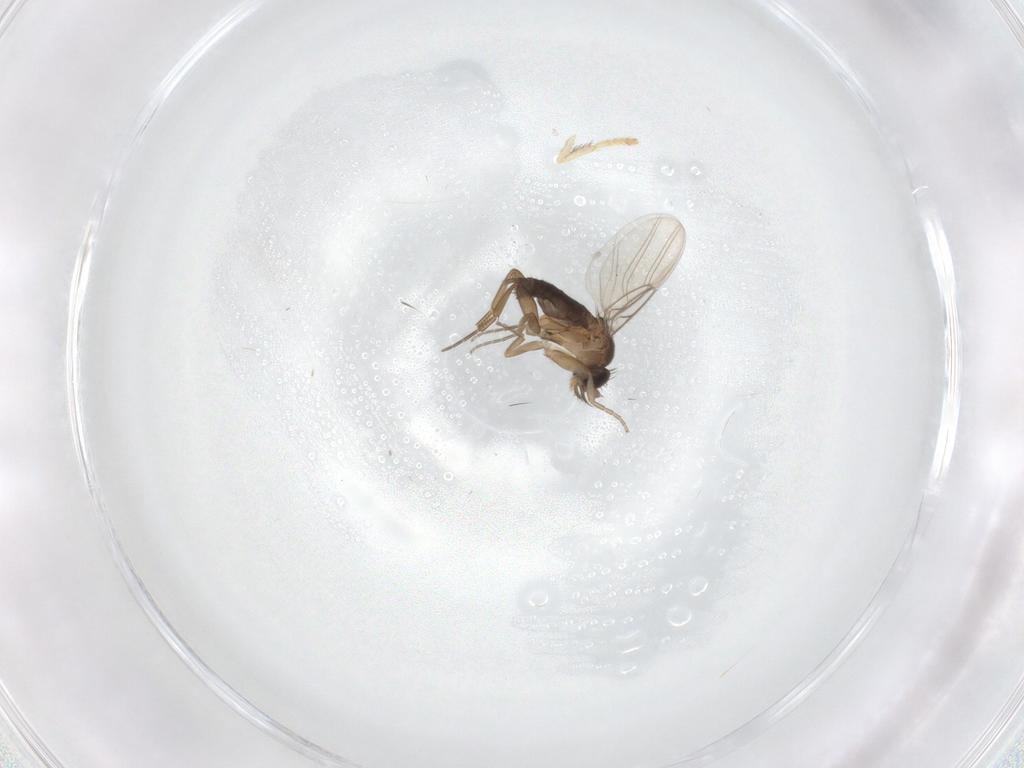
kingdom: Animalia
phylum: Arthropoda
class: Insecta
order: Diptera
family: Phoridae
